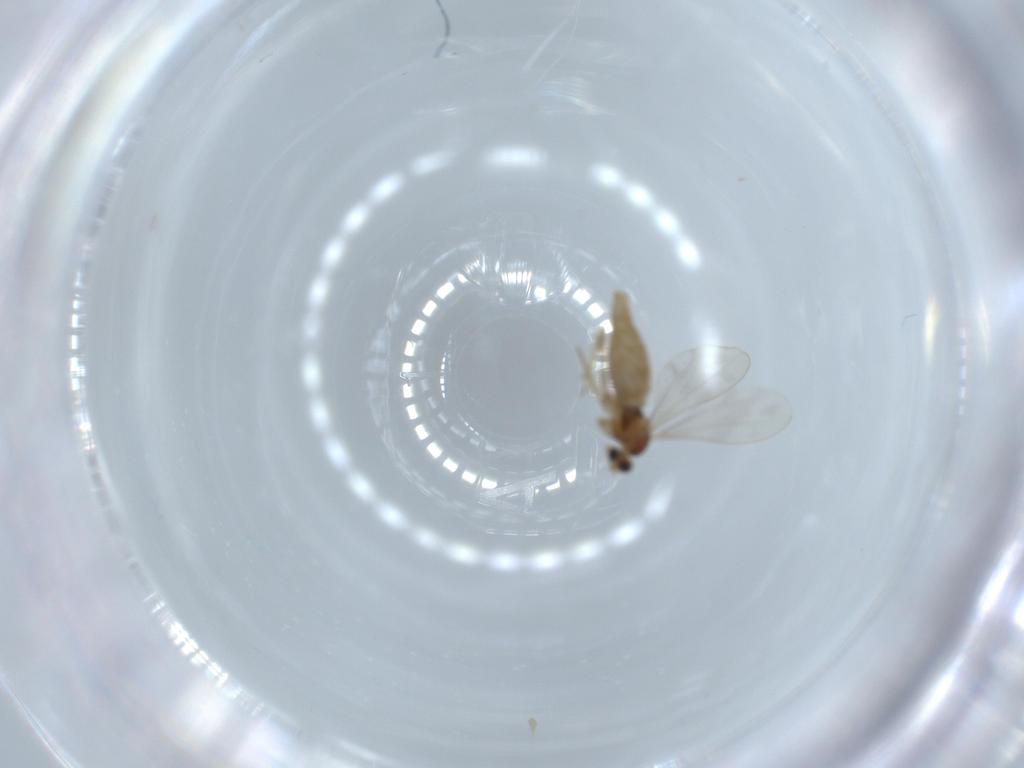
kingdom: Animalia
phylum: Arthropoda
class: Insecta
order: Diptera
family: Cecidomyiidae
